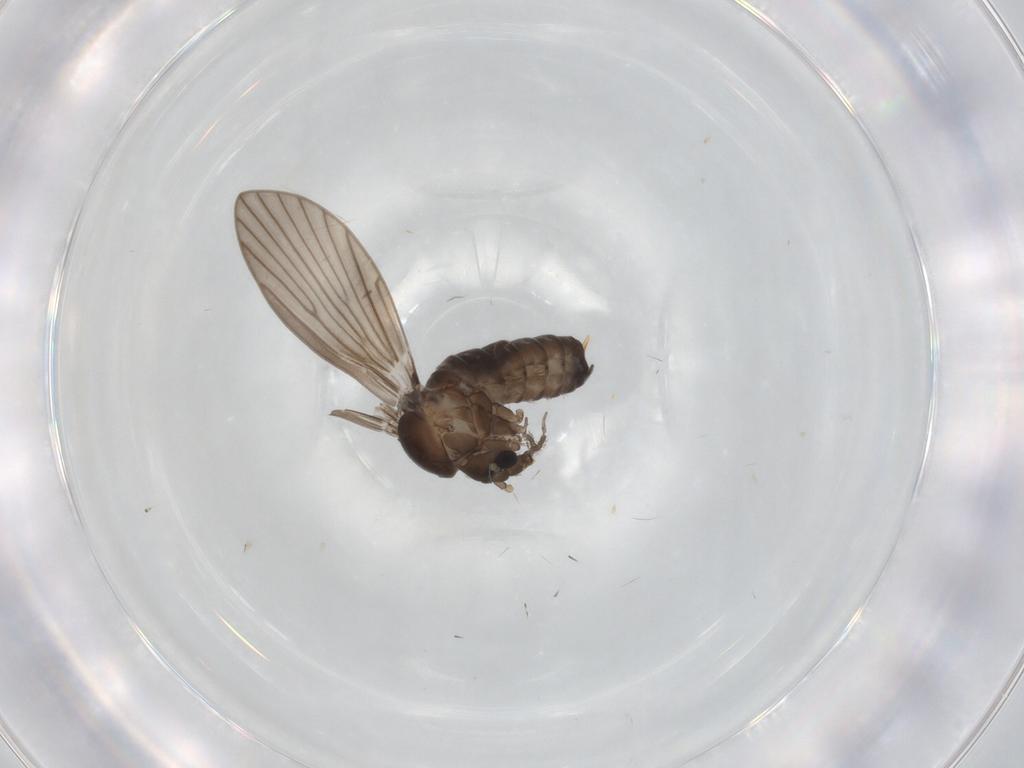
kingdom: Animalia
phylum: Arthropoda
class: Insecta
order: Diptera
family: Psychodidae
